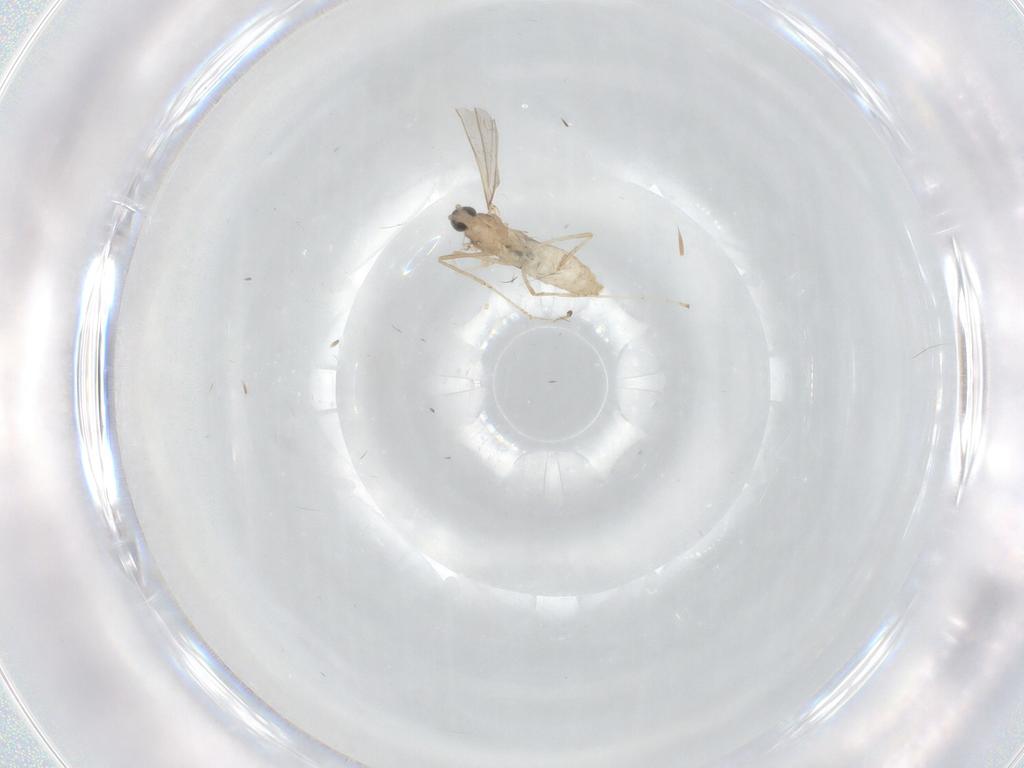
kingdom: Animalia
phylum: Arthropoda
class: Insecta
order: Diptera
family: Cecidomyiidae
